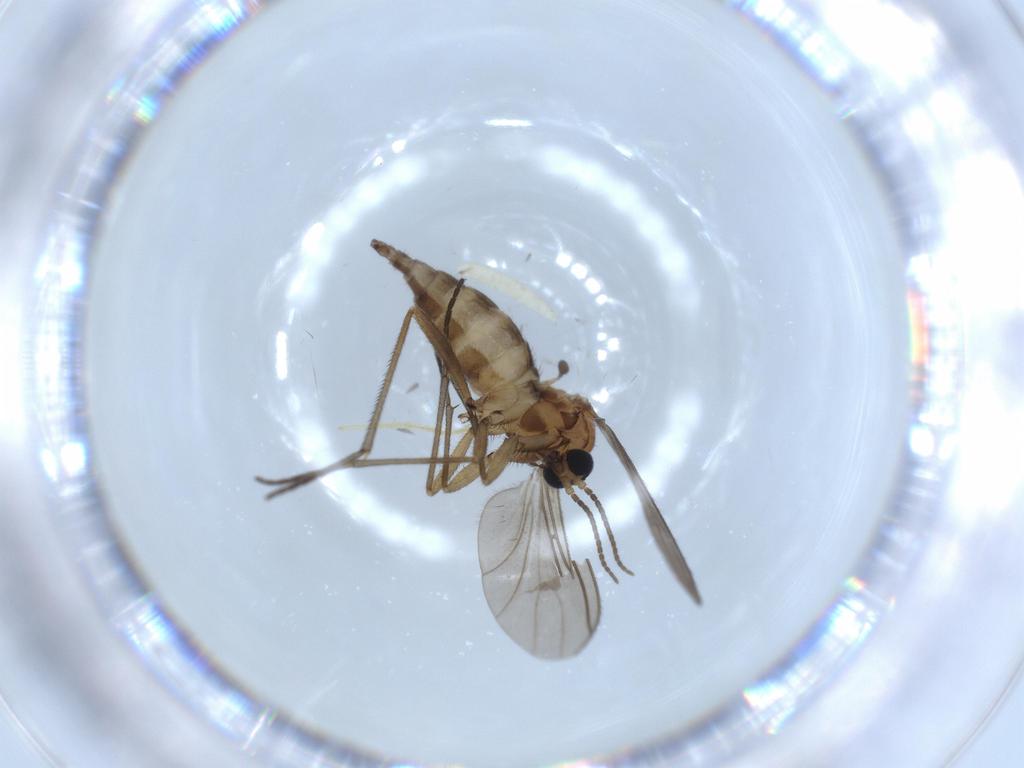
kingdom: Animalia
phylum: Arthropoda
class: Insecta
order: Diptera
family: Sciaridae
